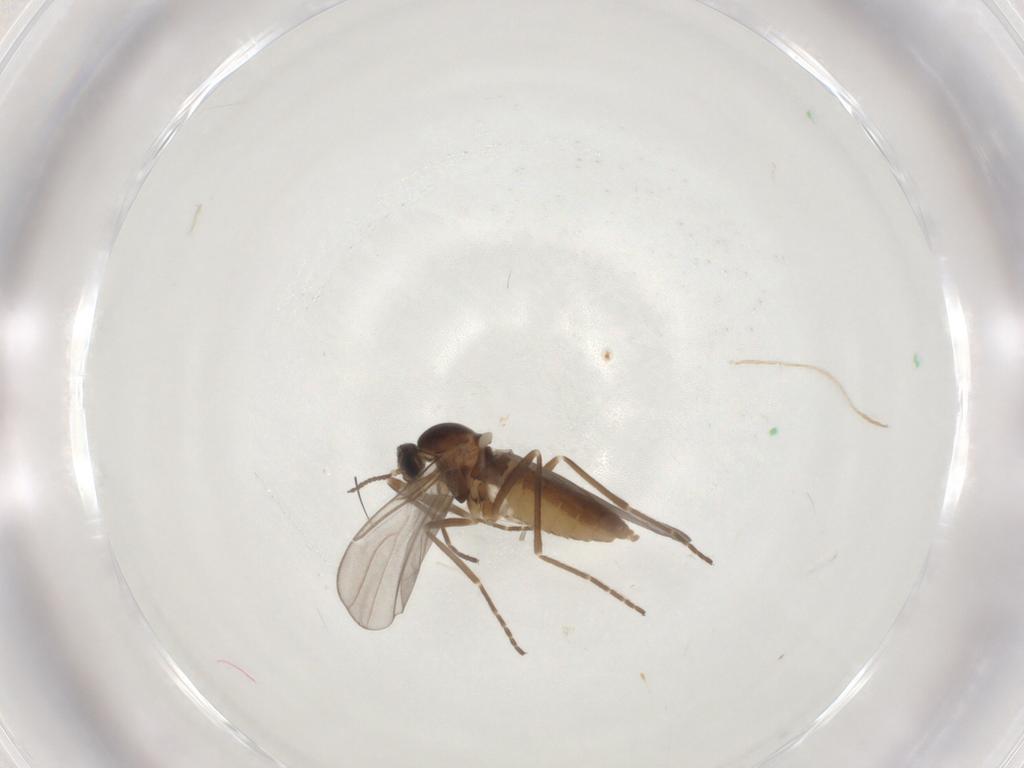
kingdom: Animalia
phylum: Arthropoda
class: Insecta
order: Diptera
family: Cecidomyiidae
